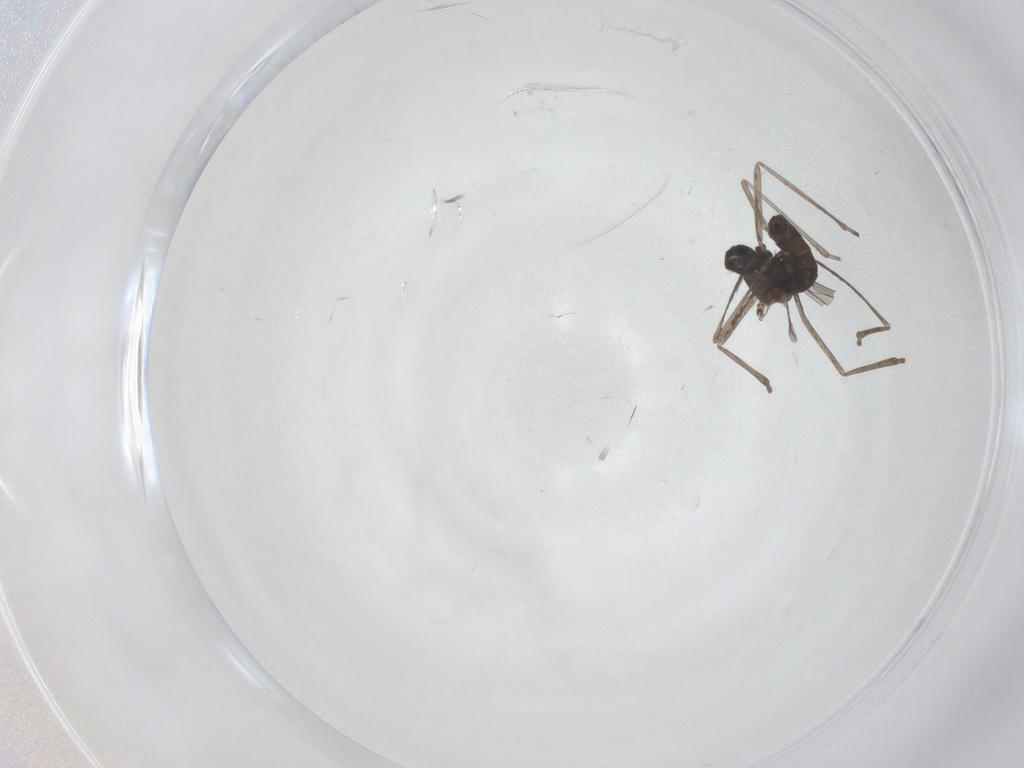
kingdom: Animalia
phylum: Arthropoda
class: Insecta
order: Diptera
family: Cecidomyiidae
